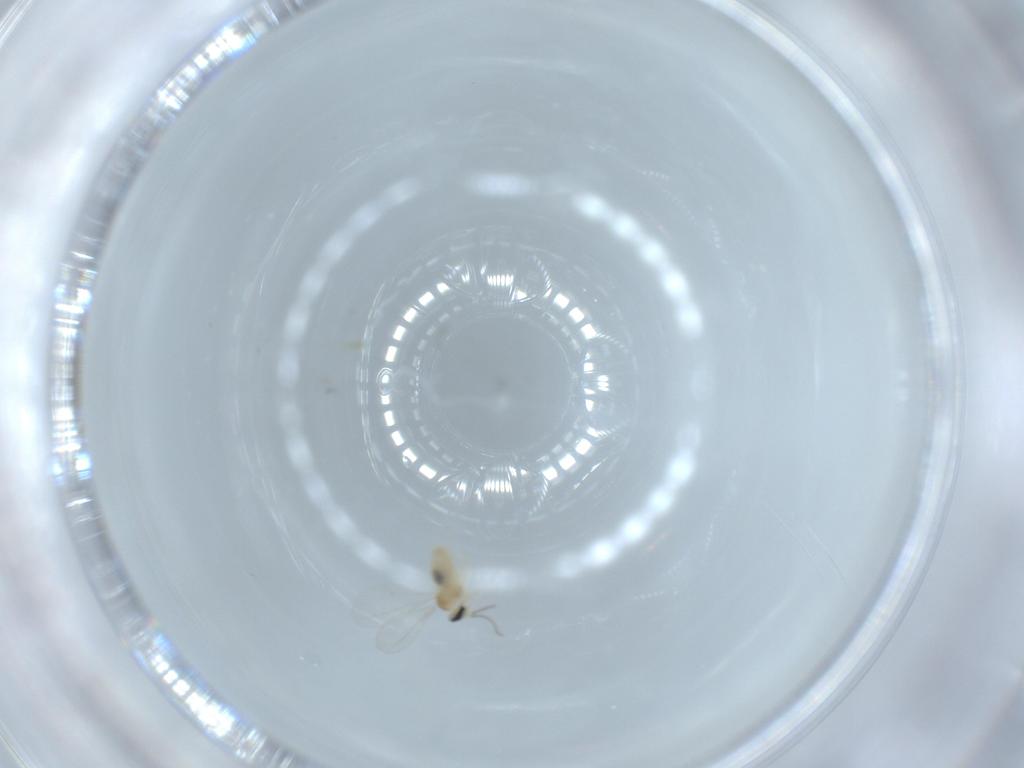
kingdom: Animalia
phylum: Arthropoda
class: Insecta
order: Diptera
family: Cecidomyiidae
